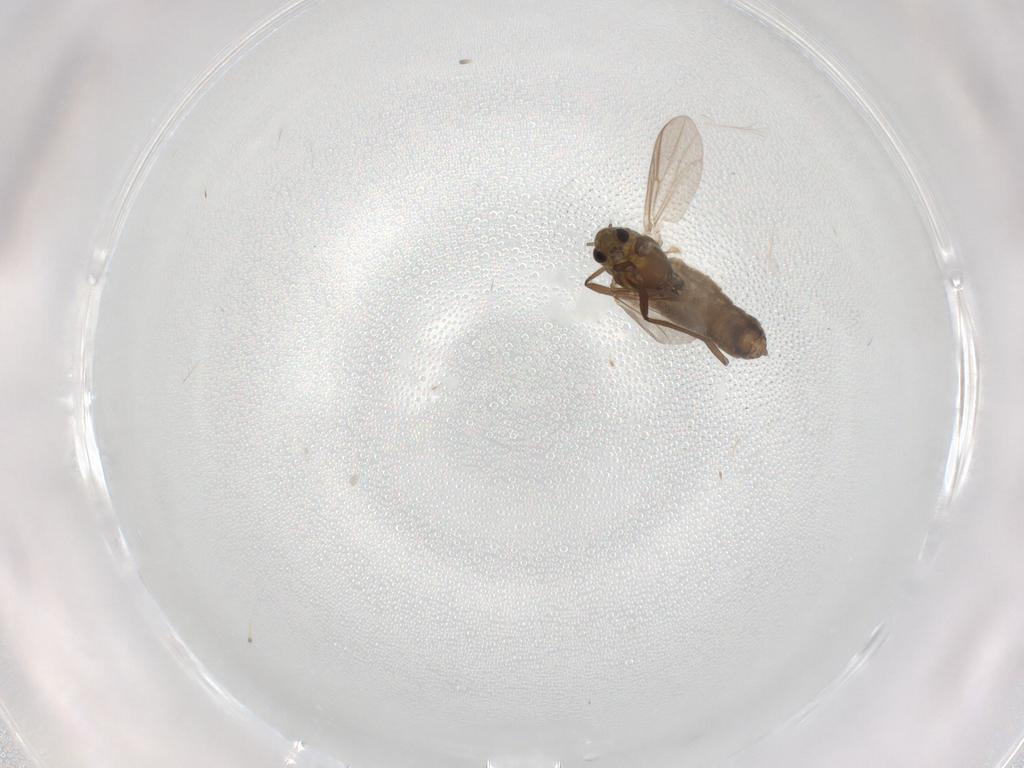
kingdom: Animalia
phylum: Arthropoda
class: Insecta
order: Diptera
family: Chironomidae
